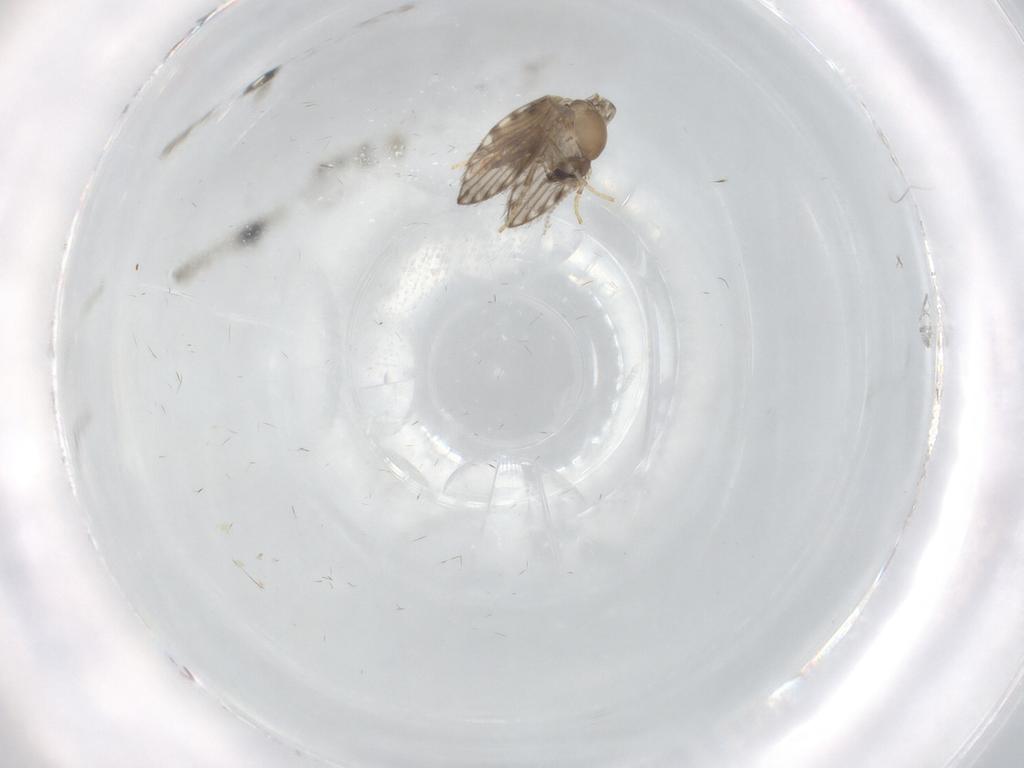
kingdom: Animalia
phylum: Arthropoda
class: Insecta
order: Diptera
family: Psychodidae
